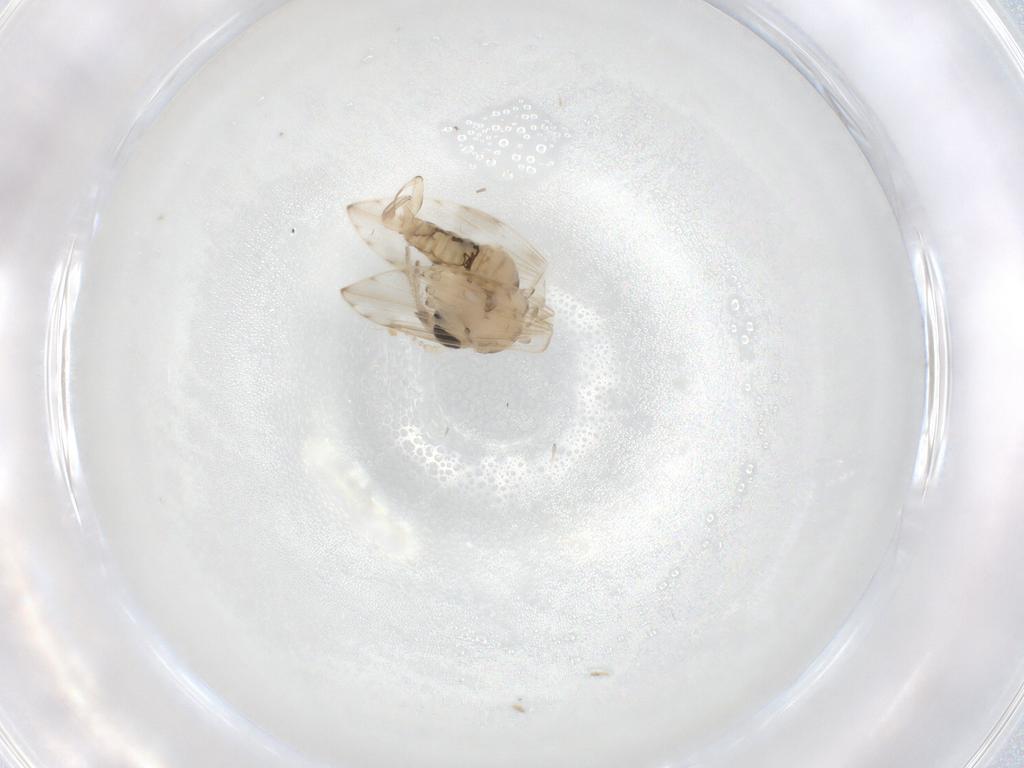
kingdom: Animalia
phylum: Arthropoda
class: Insecta
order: Diptera
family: Psychodidae
